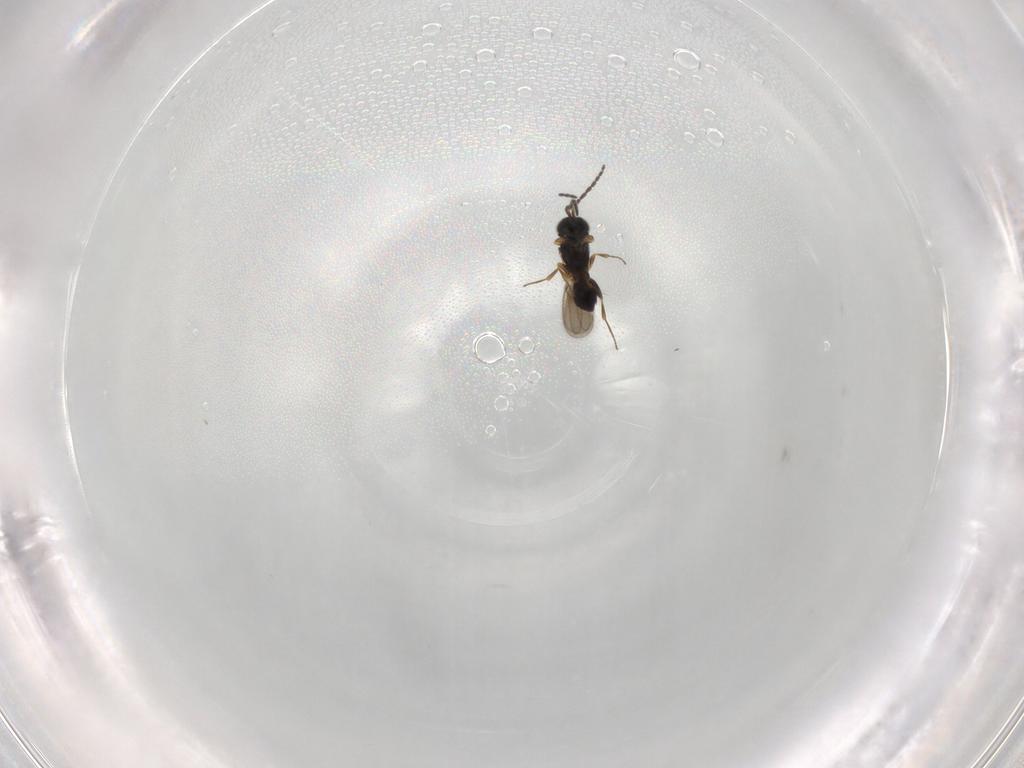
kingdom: Animalia
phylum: Arthropoda
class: Insecta
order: Hymenoptera
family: Scelionidae
